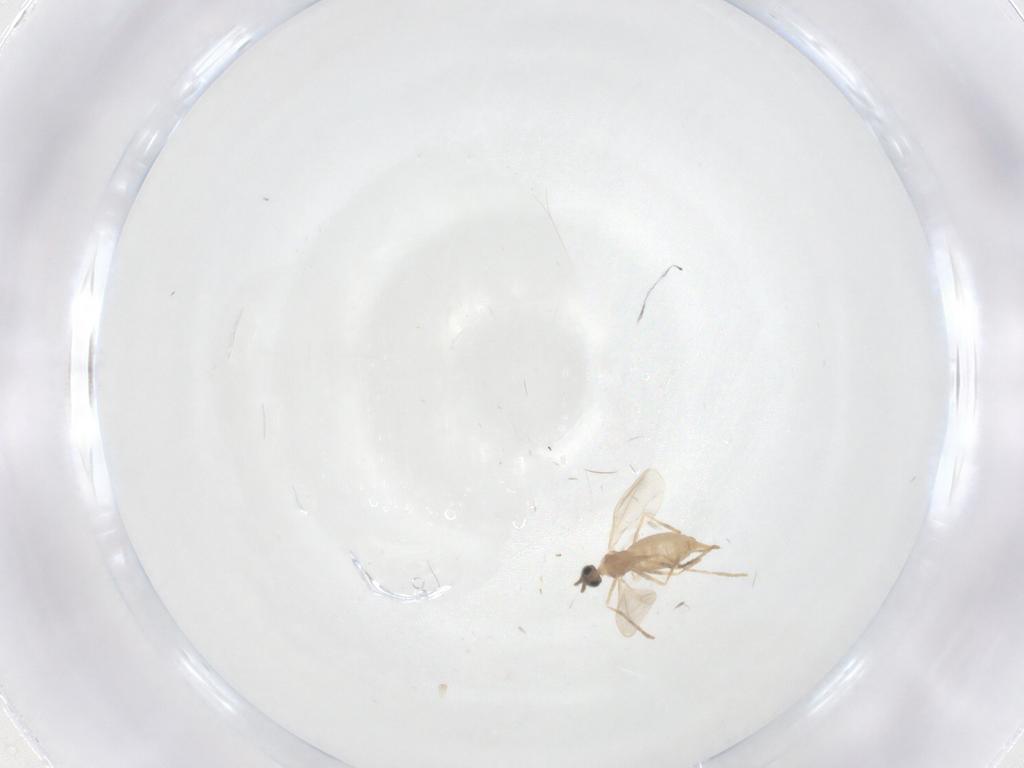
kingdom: Animalia
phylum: Arthropoda
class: Insecta
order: Diptera
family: Cecidomyiidae
